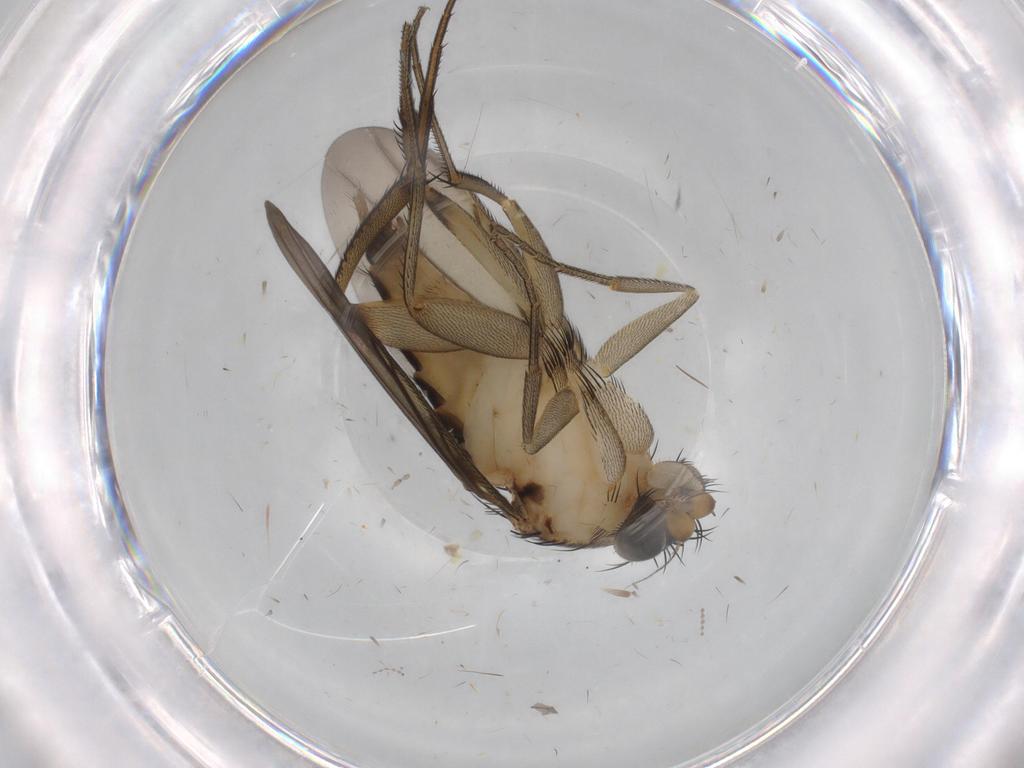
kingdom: Animalia
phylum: Arthropoda
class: Insecta
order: Diptera
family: Phoridae
